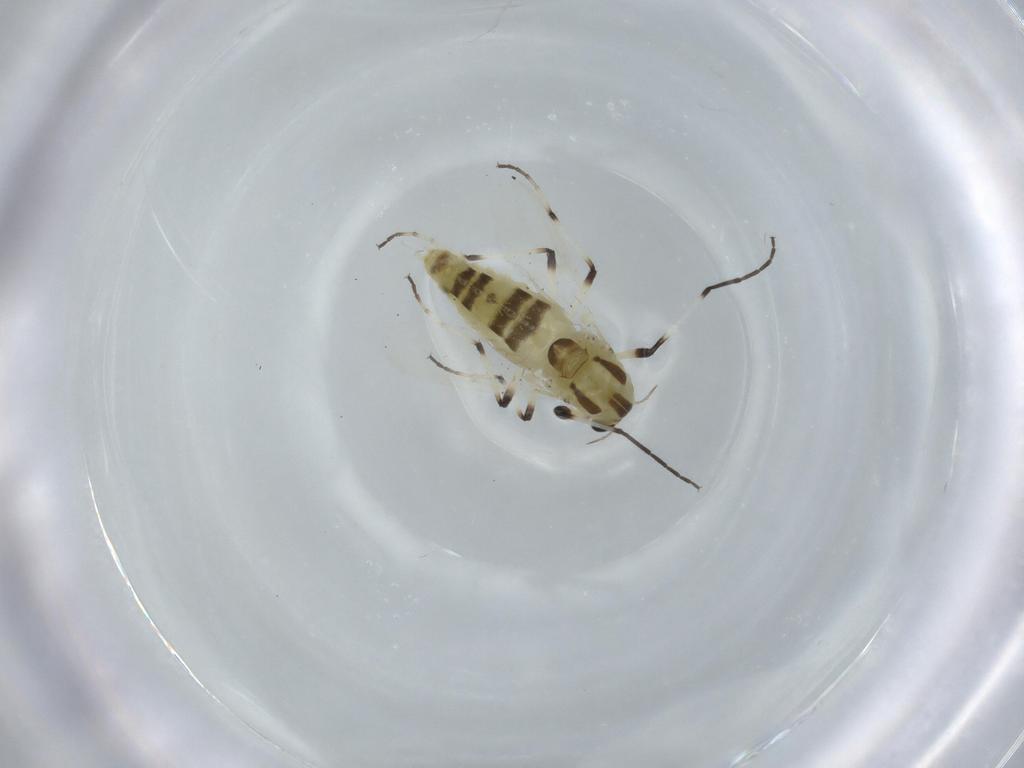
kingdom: Animalia
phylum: Arthropoda
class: Insecta
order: Diptera
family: Chironomidae
